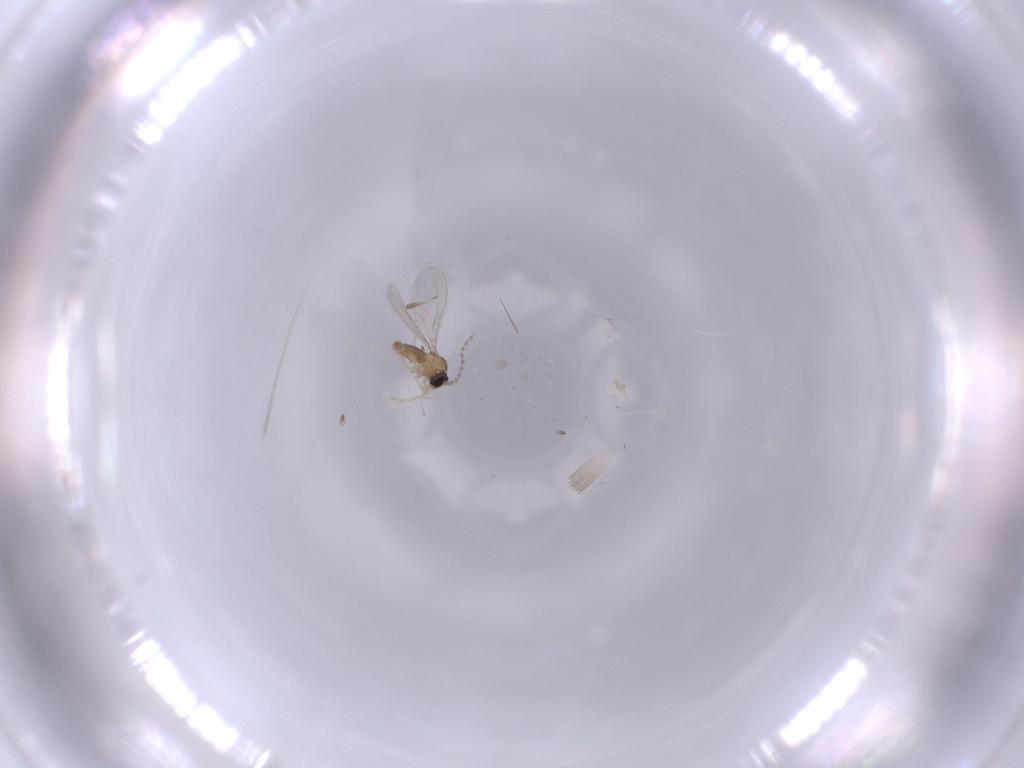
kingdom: Animalia
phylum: Arthropoda
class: Insecta
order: Diptera
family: Cecidomyiidae
